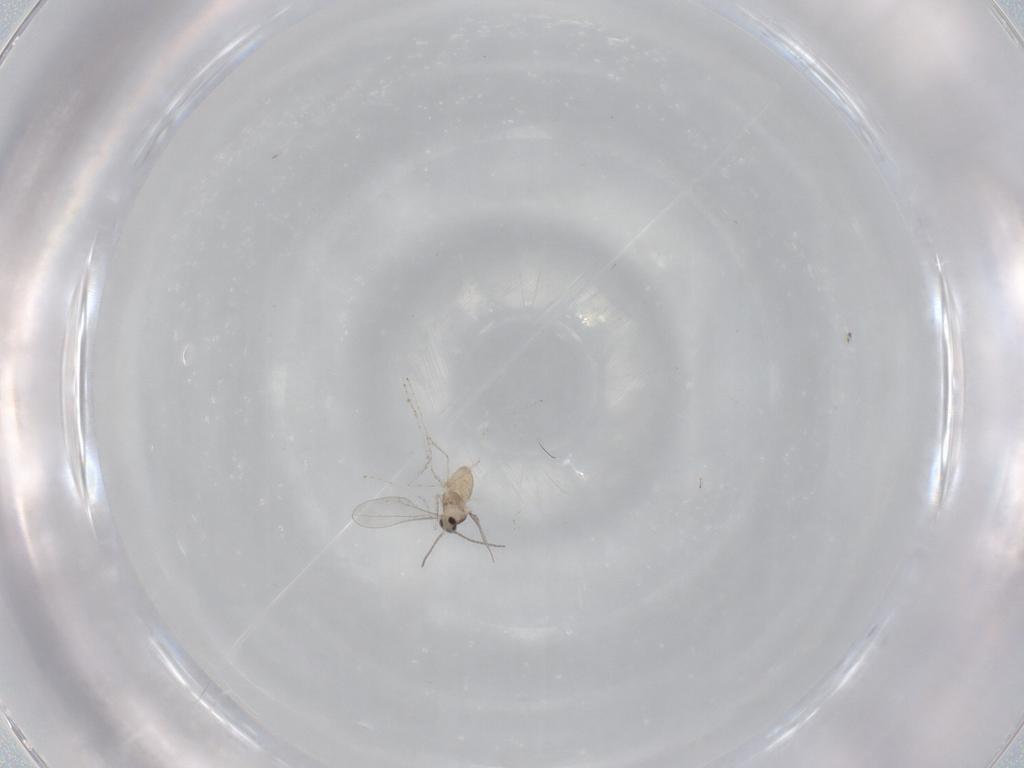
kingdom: Animalia
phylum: Arthropoda
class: Insecta
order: Diptera
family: Cecidomyiidae
